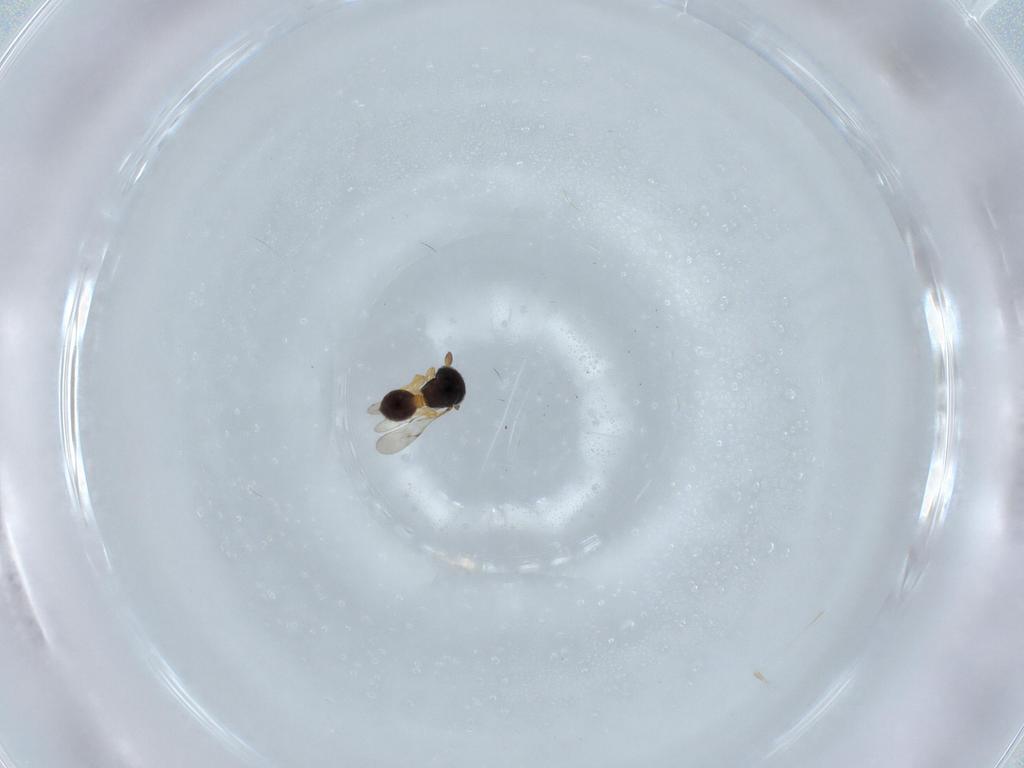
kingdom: Animalia
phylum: Arthropoda
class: Insecta
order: Hymenoptera
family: Scelionidae
